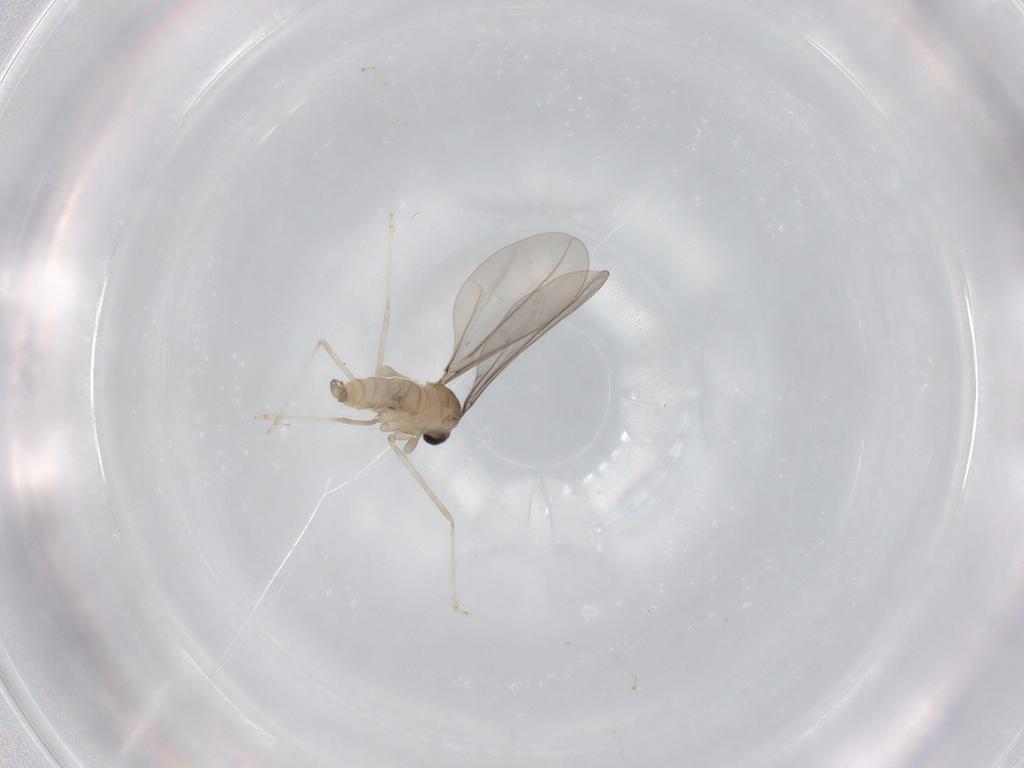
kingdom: Animalia
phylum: Arthropoda
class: Insecta
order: Diptera
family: Cecidomyiidae
